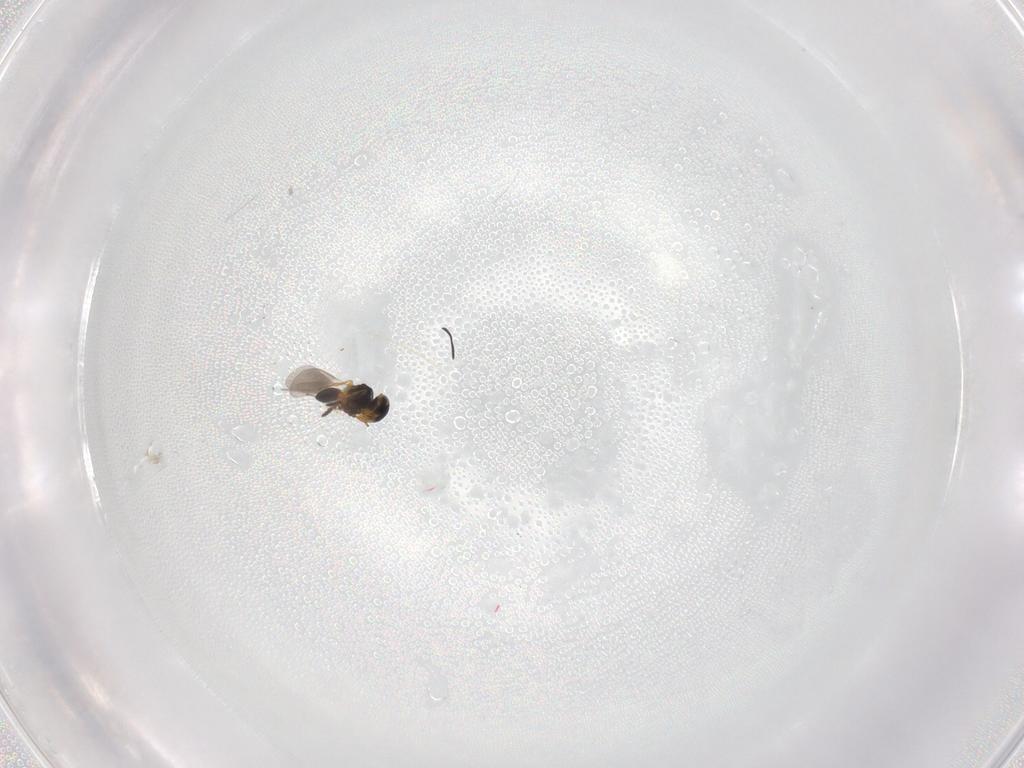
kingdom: Animalia
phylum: Arthropoda
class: Insecta
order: Hymenoptera
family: Platygastridae
